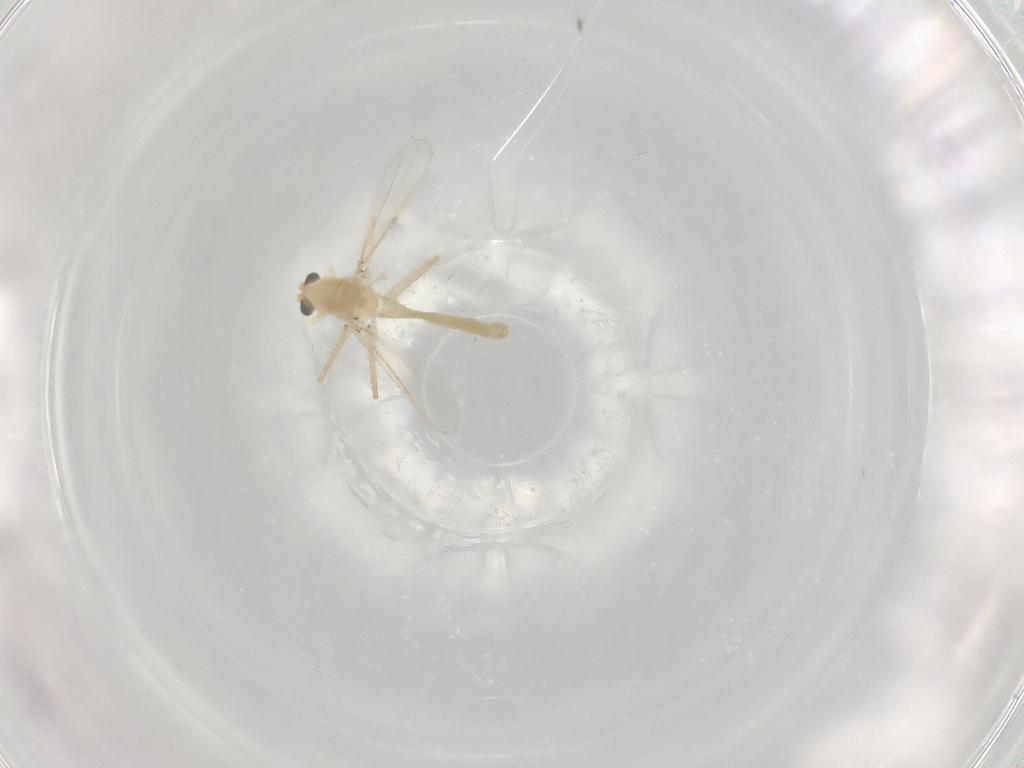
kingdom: Animalia
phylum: Arthropoda
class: Insecta
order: Diptera
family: Chironomidae
